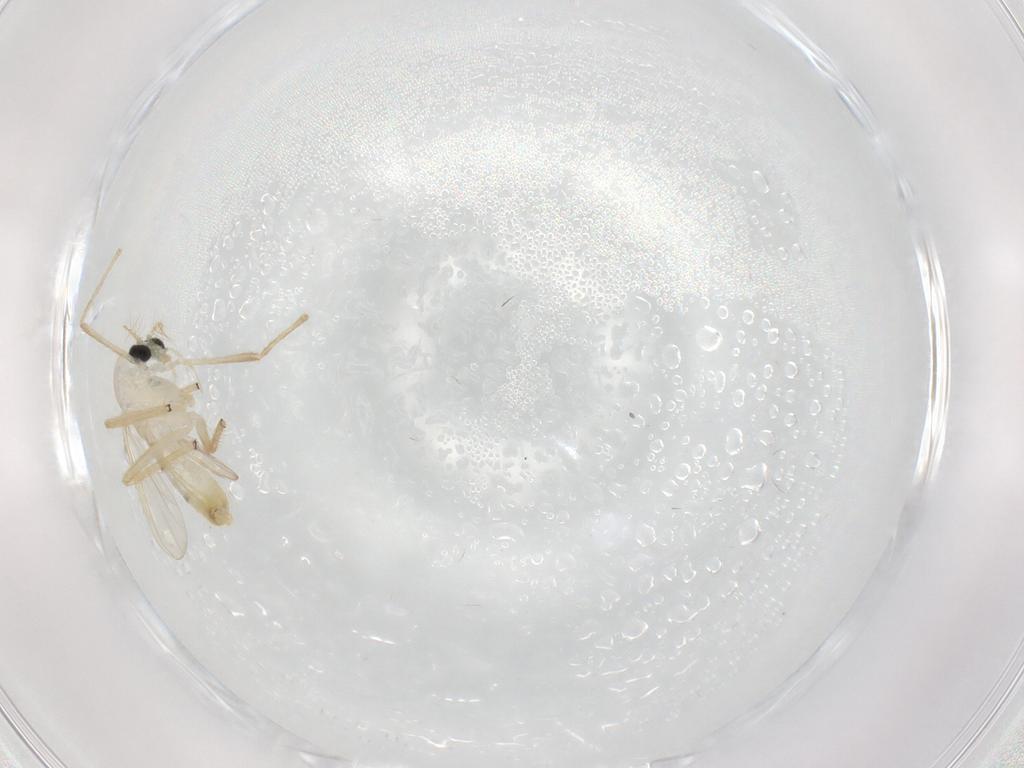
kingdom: Animalia
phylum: Arthropoda
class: Insecta
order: Diptera
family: Chironomidae
